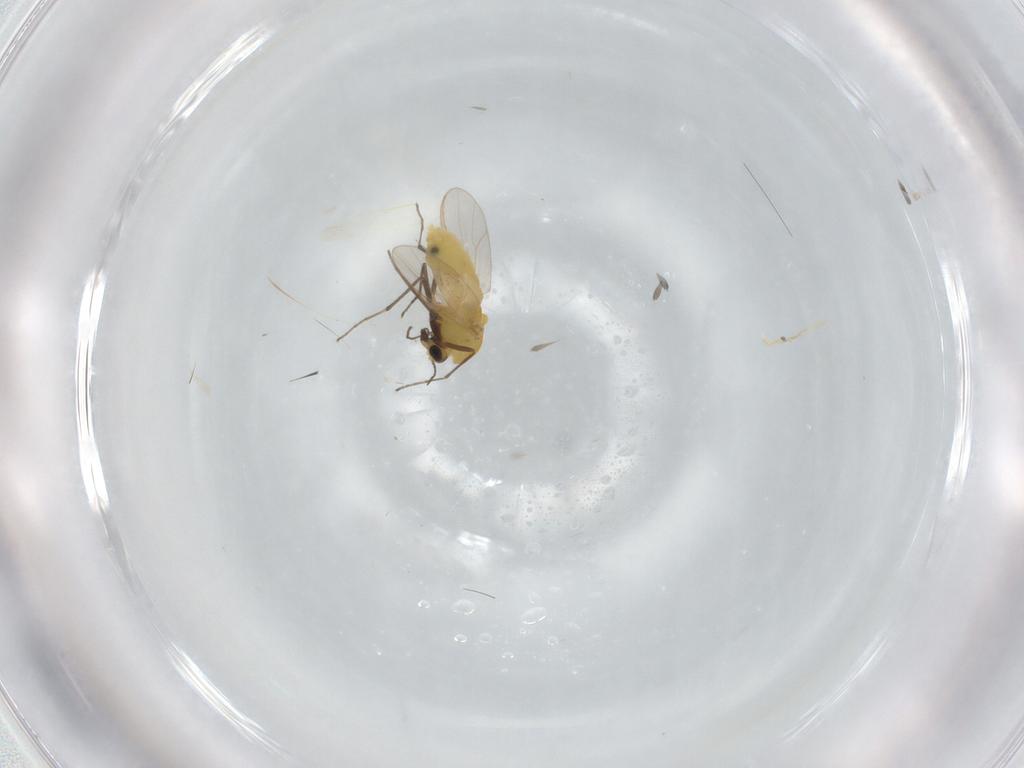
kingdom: Animalia
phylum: Arthropoda
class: Insecta
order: Diptera
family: Chironomidae
